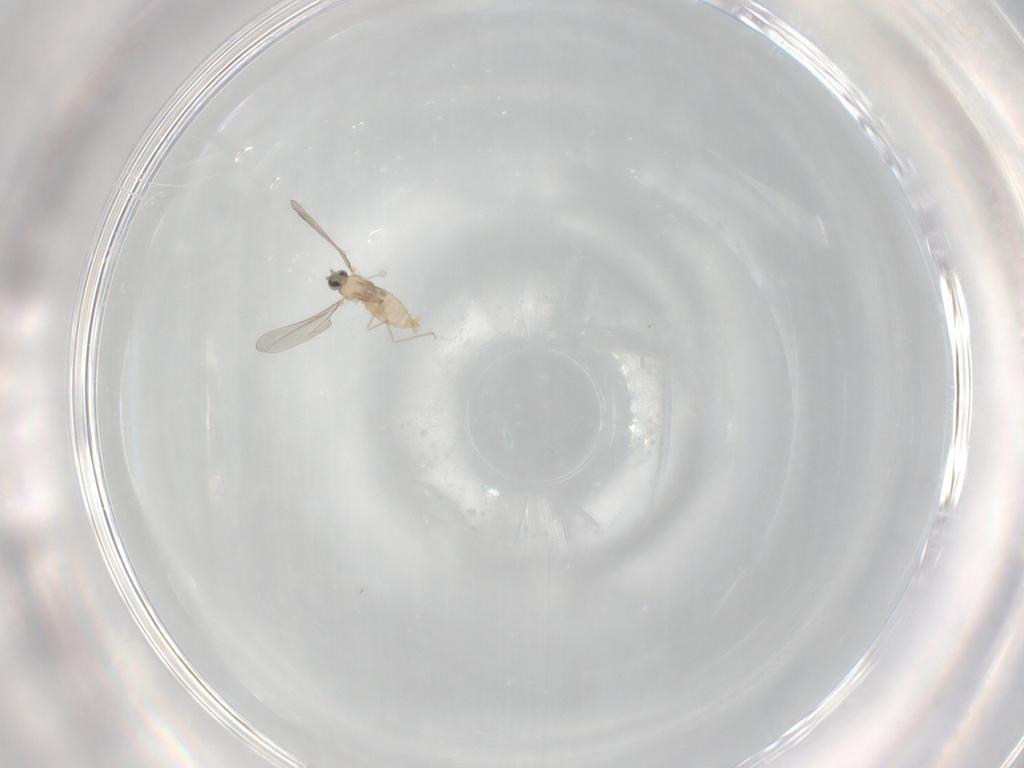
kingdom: Animalia
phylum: Arthropoda
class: Insecta
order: Diptera
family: Cecidomyiidae
